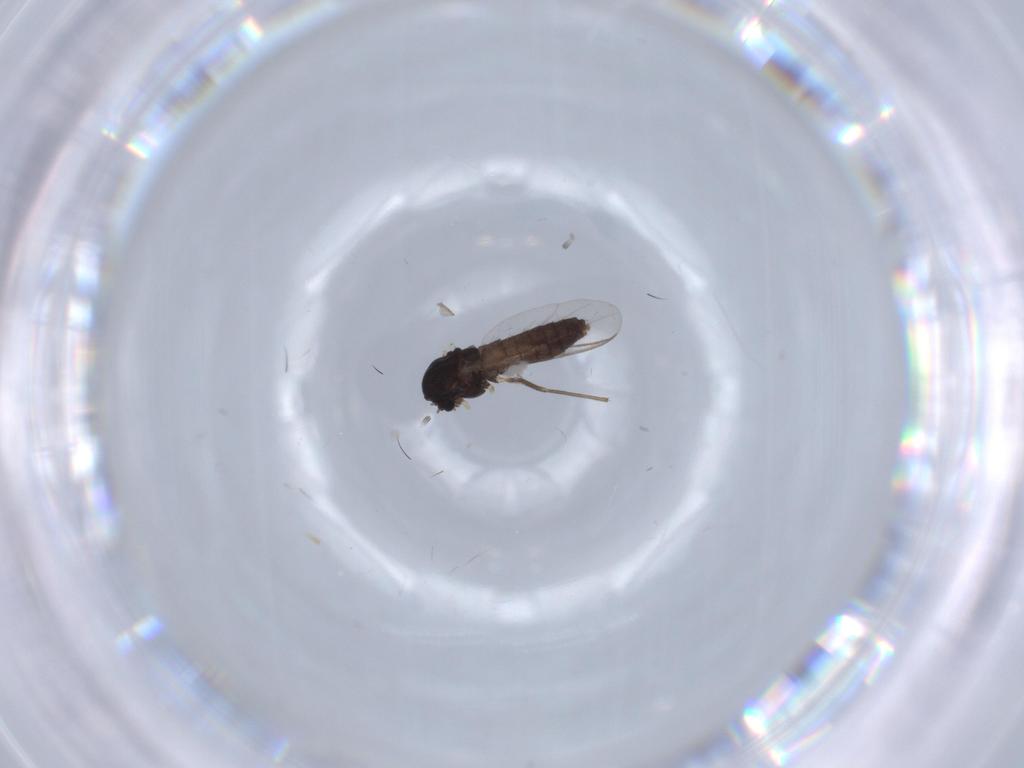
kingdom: Animalia
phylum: Arthropoda
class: Insecta
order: Diptera
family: Chironomidae
